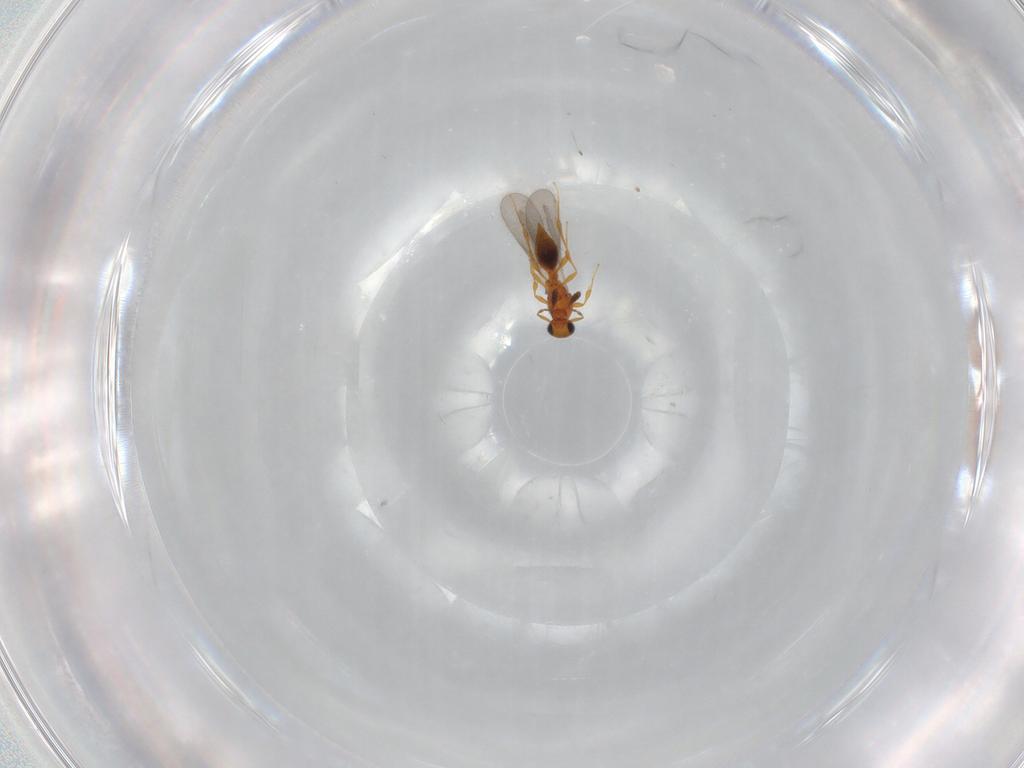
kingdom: Animalia
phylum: Arthropoda
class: Insecta
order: Hymenoptera
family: Platygastridae
